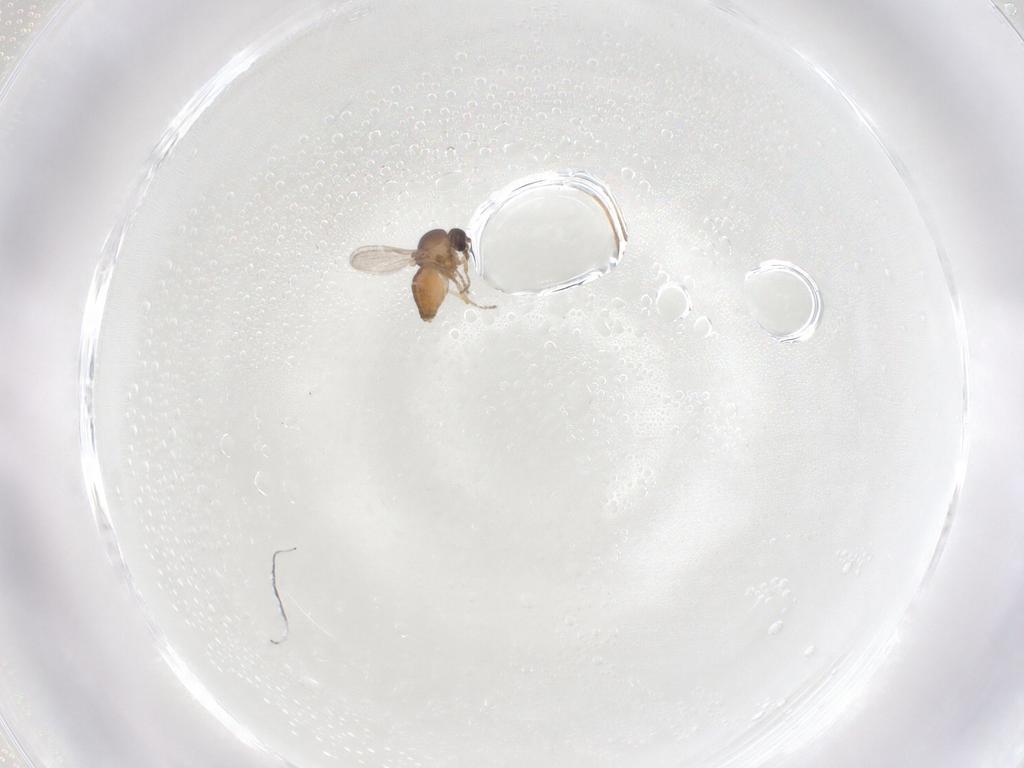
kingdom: Animalia
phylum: Arthropoda
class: Insecta
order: Diptera
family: Ceratopogonidae
